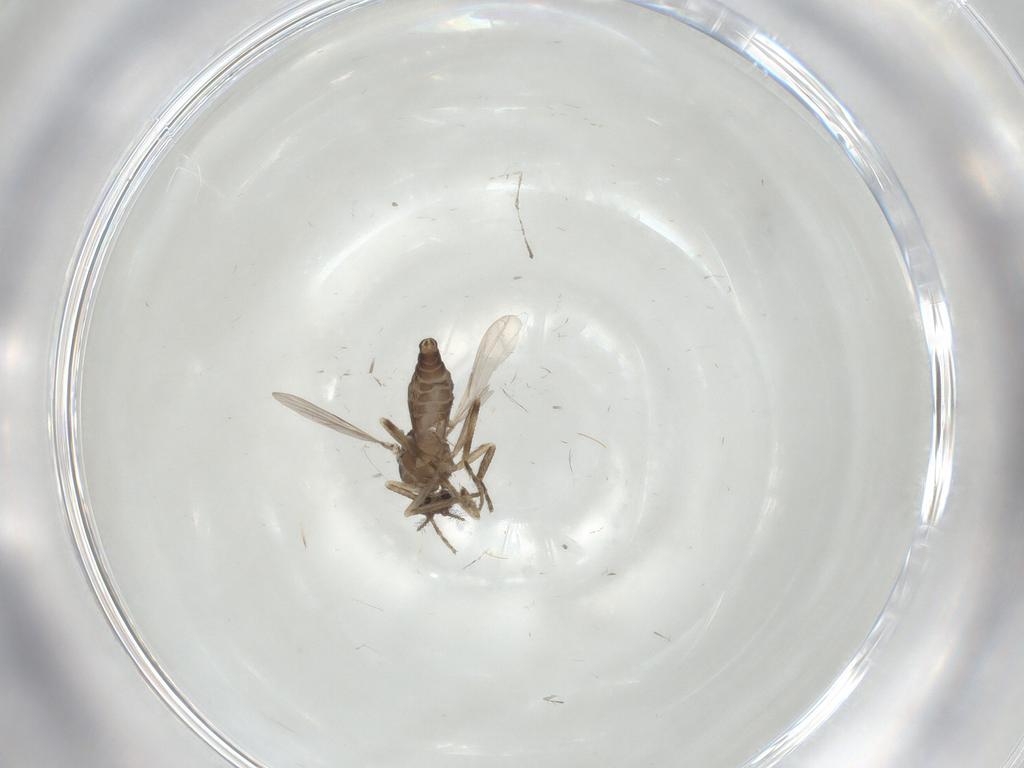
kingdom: Animalia
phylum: Arthropoda
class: Insecta
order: Diptera
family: Ceratopogonidae
